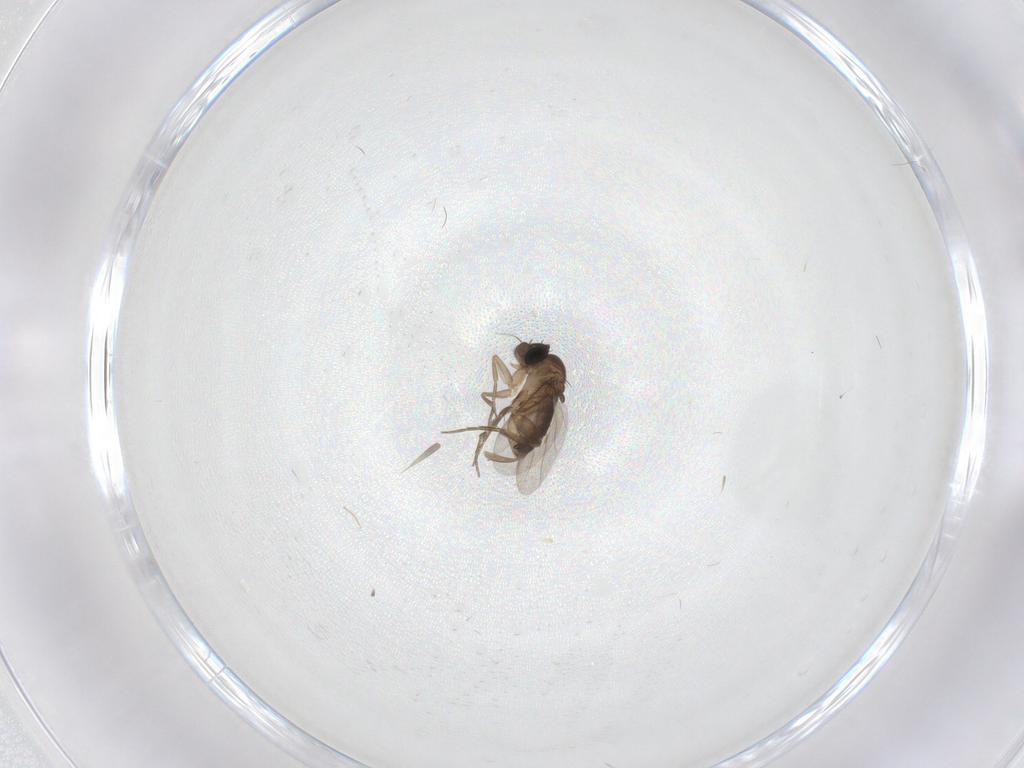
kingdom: Animalia
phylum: Arthropoda
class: Insecta
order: Diptera
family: Cecidomyiidae
